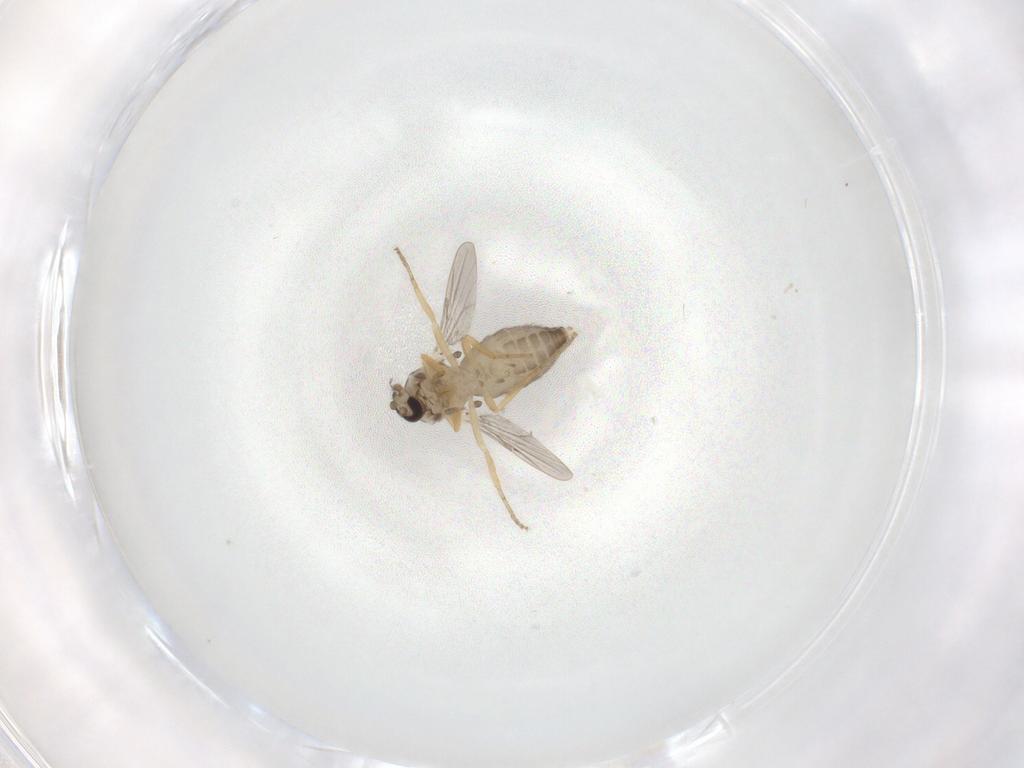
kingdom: Animalia
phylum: Arthropoda
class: Insecta
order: Diptera
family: Ceratopogonidae
